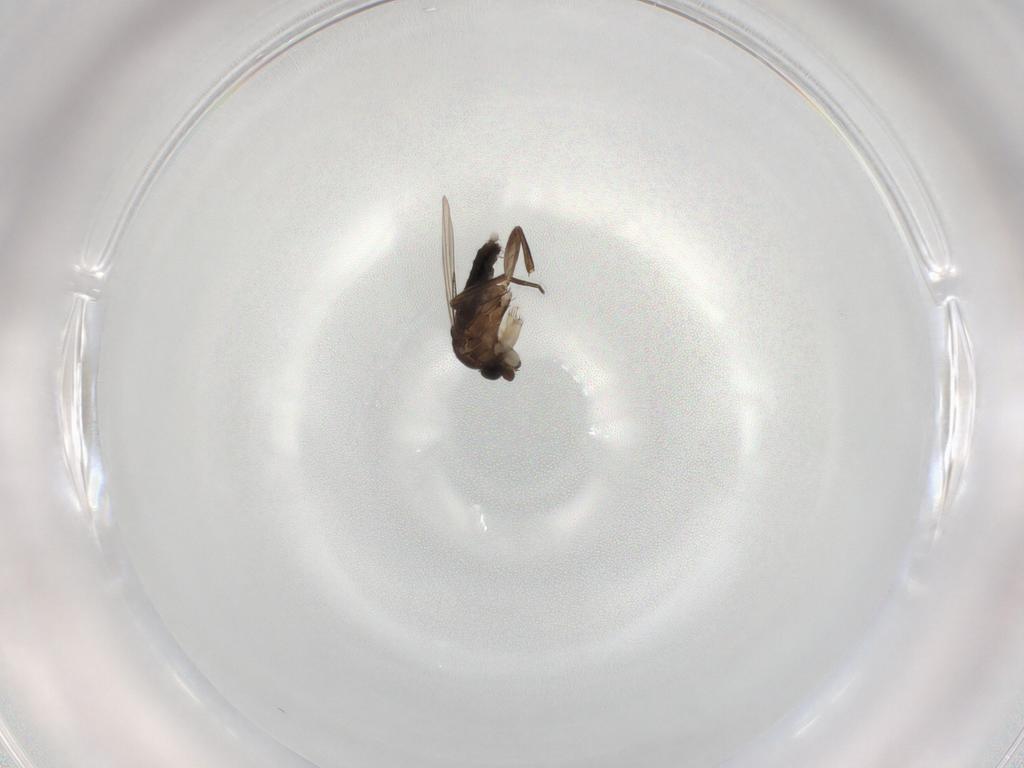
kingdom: Animalia
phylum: Arthropoda
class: Insecta
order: Diptera
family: Phoridae
